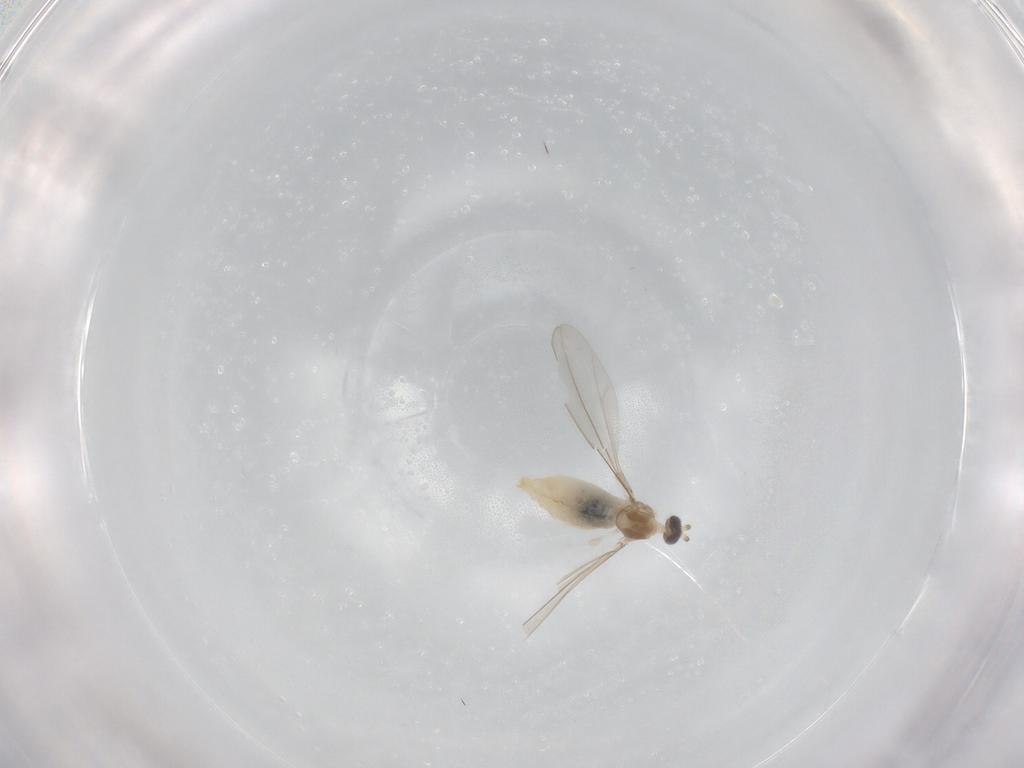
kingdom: Animalia
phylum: Arthropoda
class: Insecta
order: Diptera
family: Cecidomyiidae
